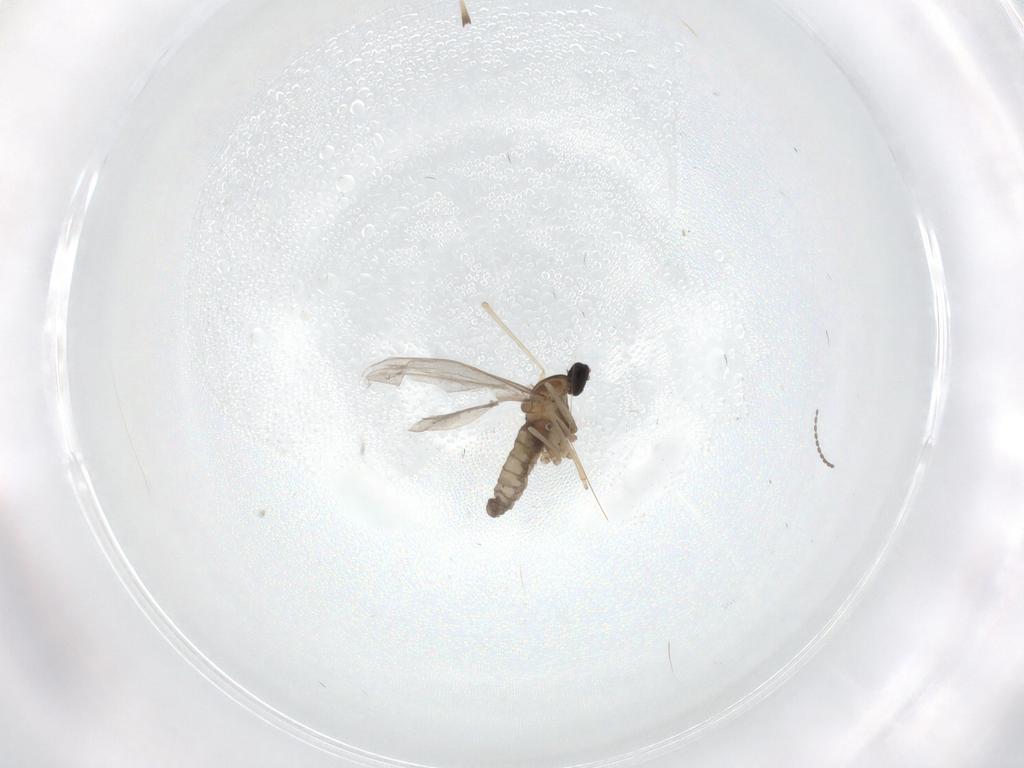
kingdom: Animalia
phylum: Arthropoda
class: Insecta
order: Diptera
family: Cecidomyiidae
